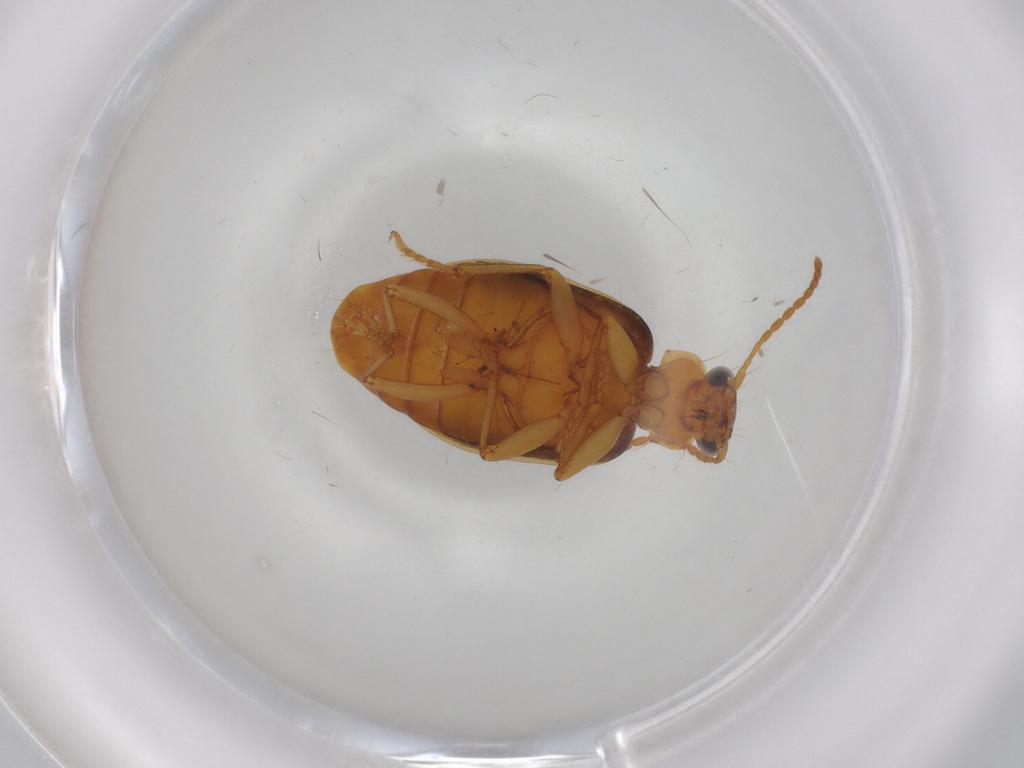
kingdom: Animalia
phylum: Arthropoda
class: Insecta
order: Coleoptera
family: Carabidae
